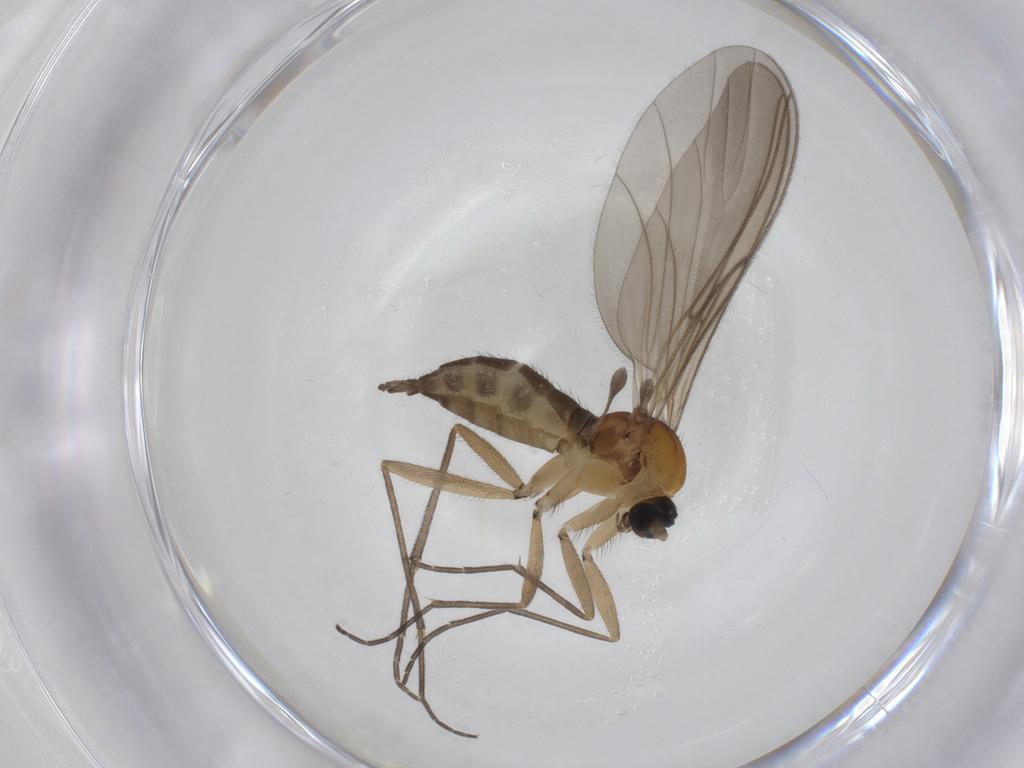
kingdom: Animalia
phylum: Arthropoda
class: Insecta
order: Diptera
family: Sciaridae
